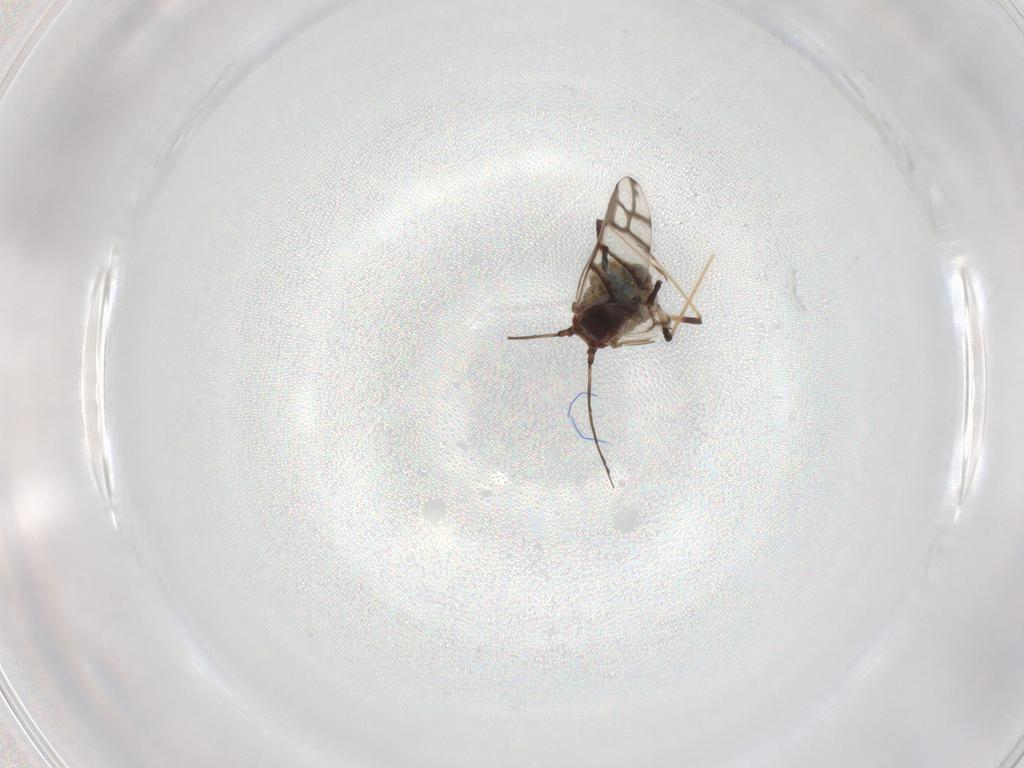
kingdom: Animalia
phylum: Arthropoda
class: Insecta
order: Hemiptera
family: Aphididae
